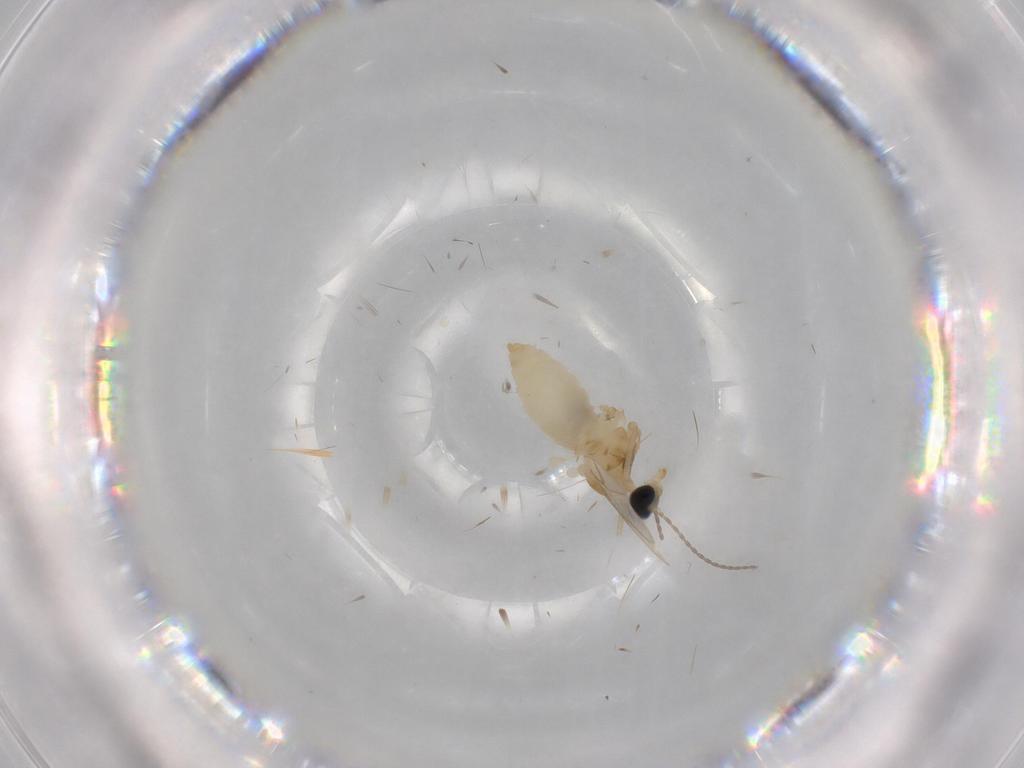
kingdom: Animalia
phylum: Arthropoda
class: Insecta
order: Diptera
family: Cecidomyiidae
